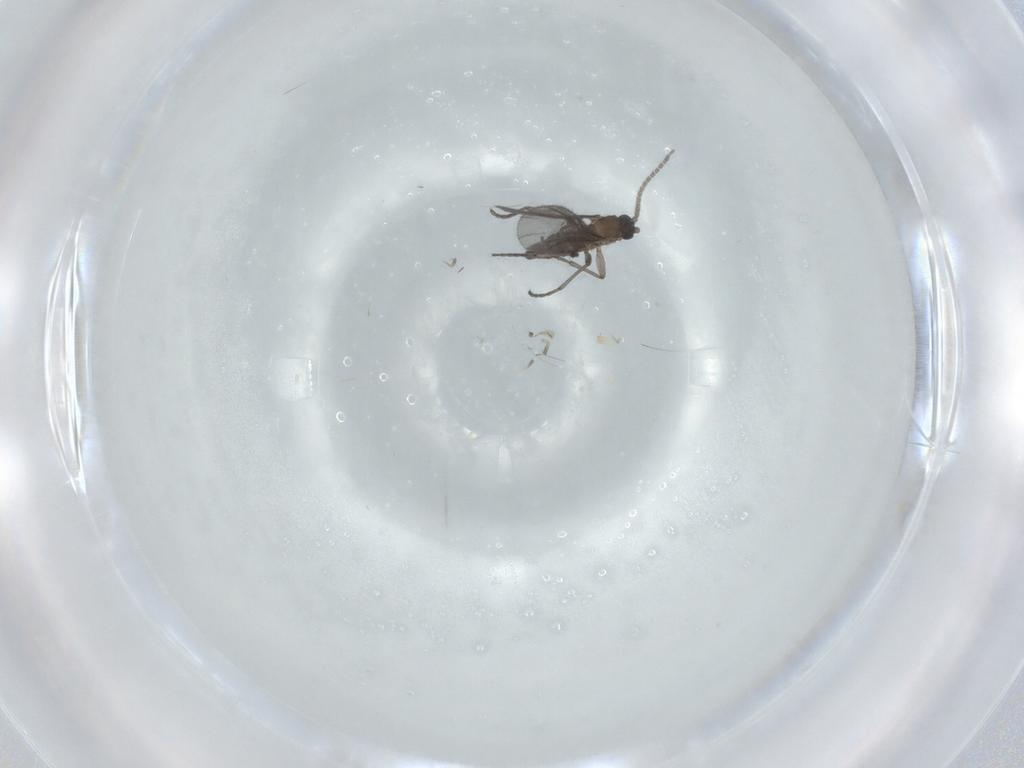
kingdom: Animalia
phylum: Arthropoda
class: Insecta
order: Diptera
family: Sciaridae
